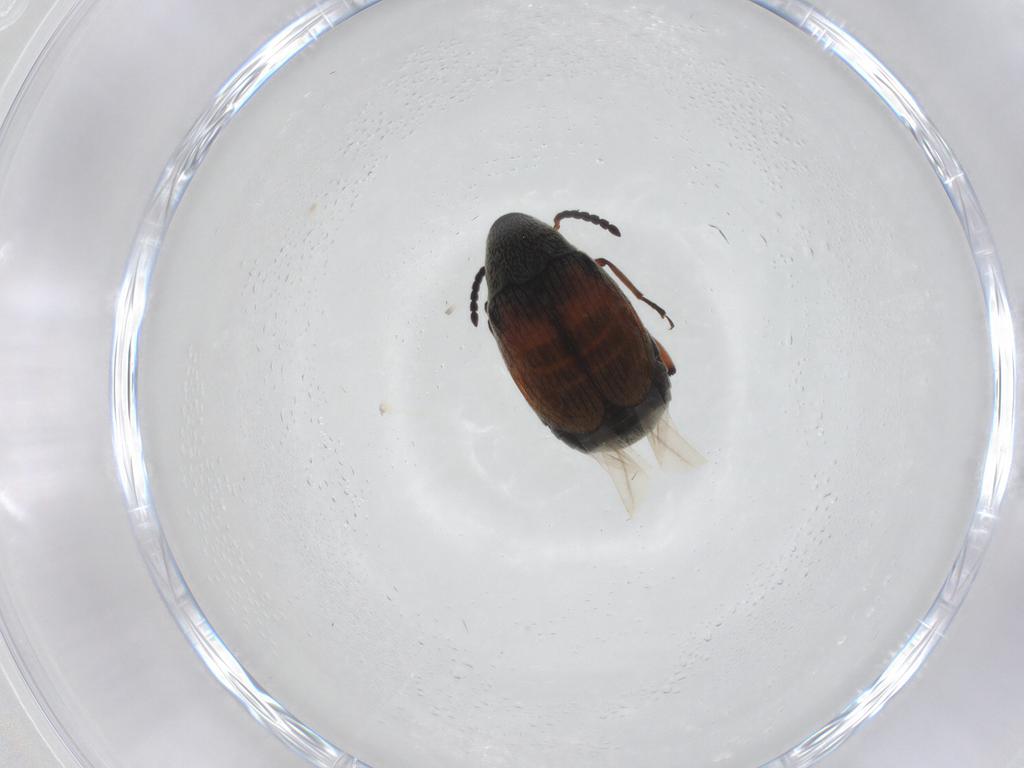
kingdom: Animalia
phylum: Arthropoda
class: Insecta
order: Coleoptera
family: Chrysomelidae
